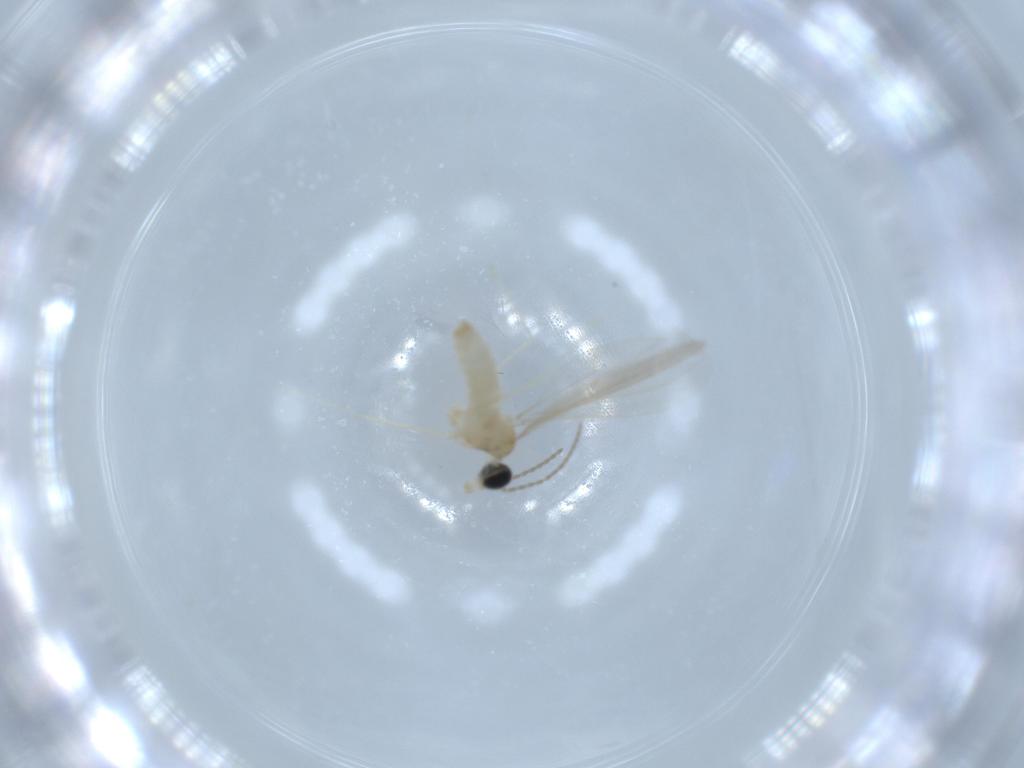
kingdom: Animalia
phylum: Arthropoda
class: Insecta
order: Diptera
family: Cecidomyiidae
